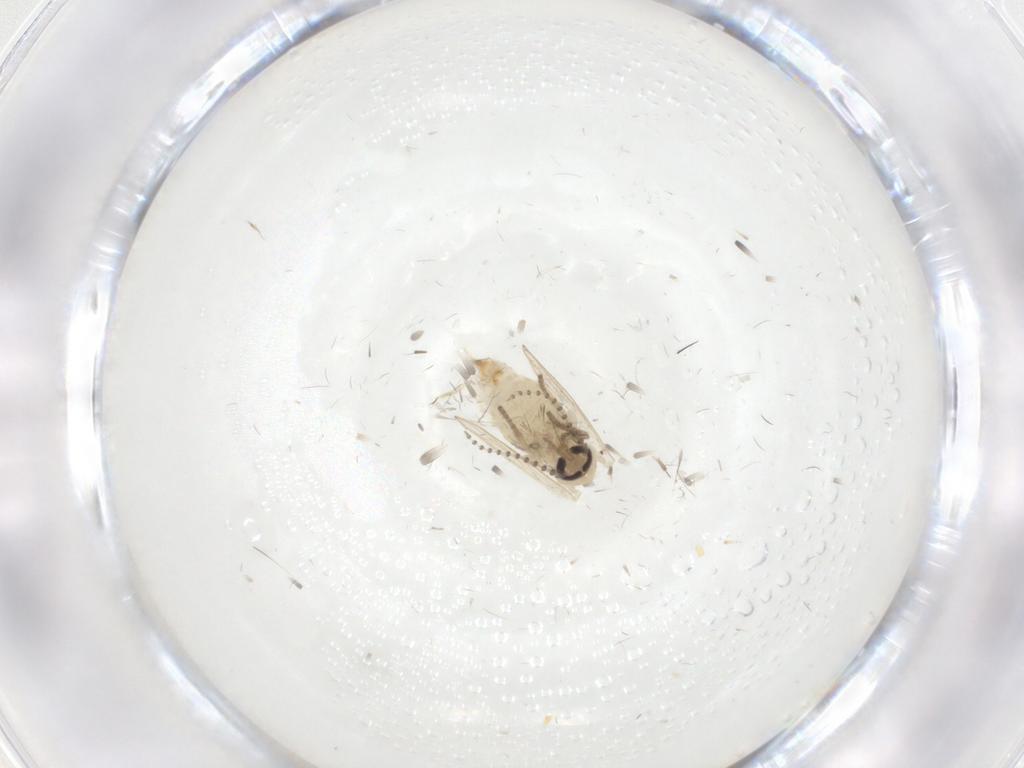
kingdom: Animalia
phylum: Arthropoda
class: Insecta
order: Diptera
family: Psychodidae
